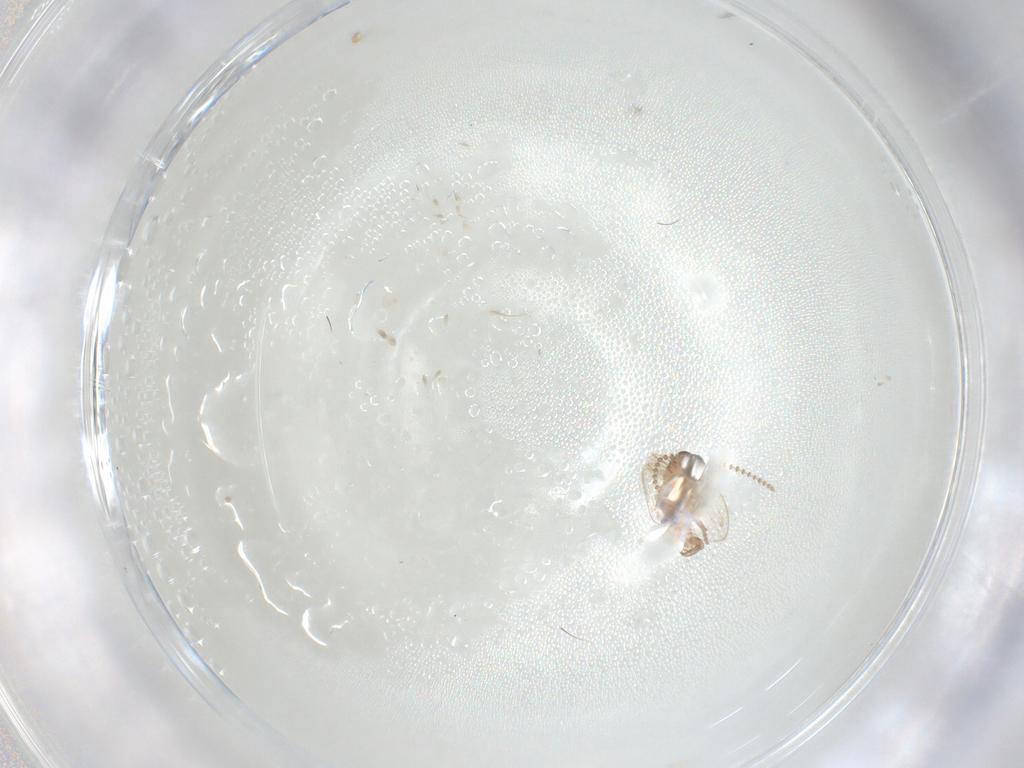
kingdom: Animalia
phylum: Arthropoda
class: Insecta
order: Diptera
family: Psychodidae
